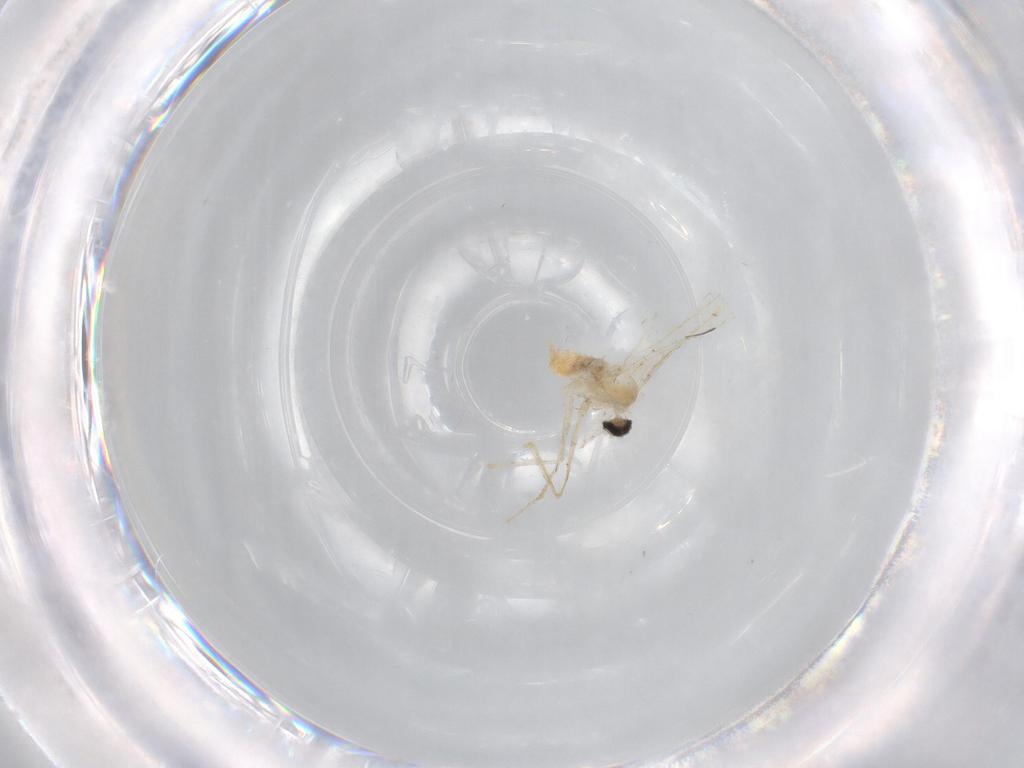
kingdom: Animalia
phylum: Arthropoda
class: Insecta
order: Diptera
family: Cecidomyiidae
